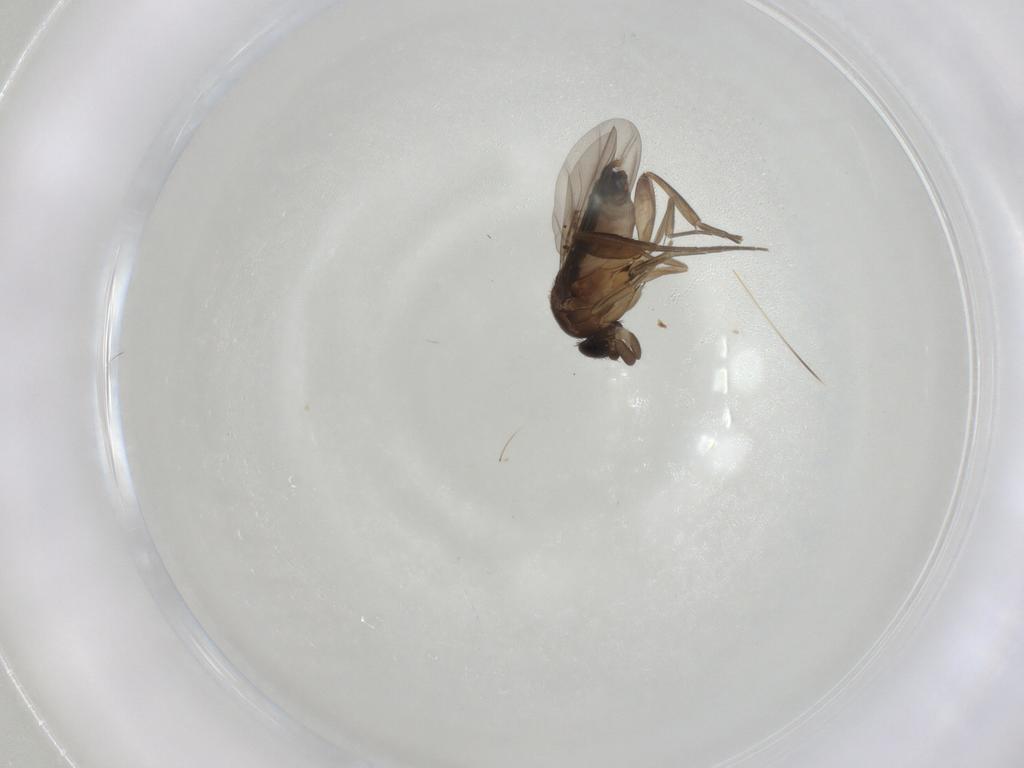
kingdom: Animalia
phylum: Arthropoda
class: Insecta
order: Diptera
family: Phoridae
